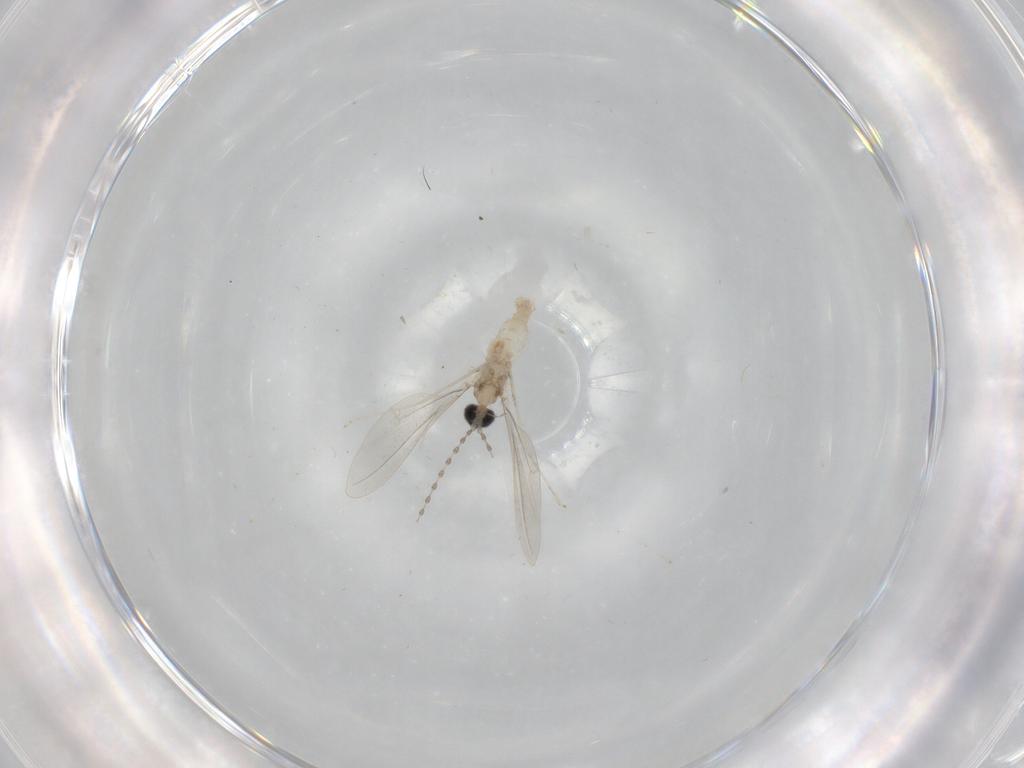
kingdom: Animalia
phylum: Arthropoda
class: Insecta
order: Diptera
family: Cecidomyiidae
